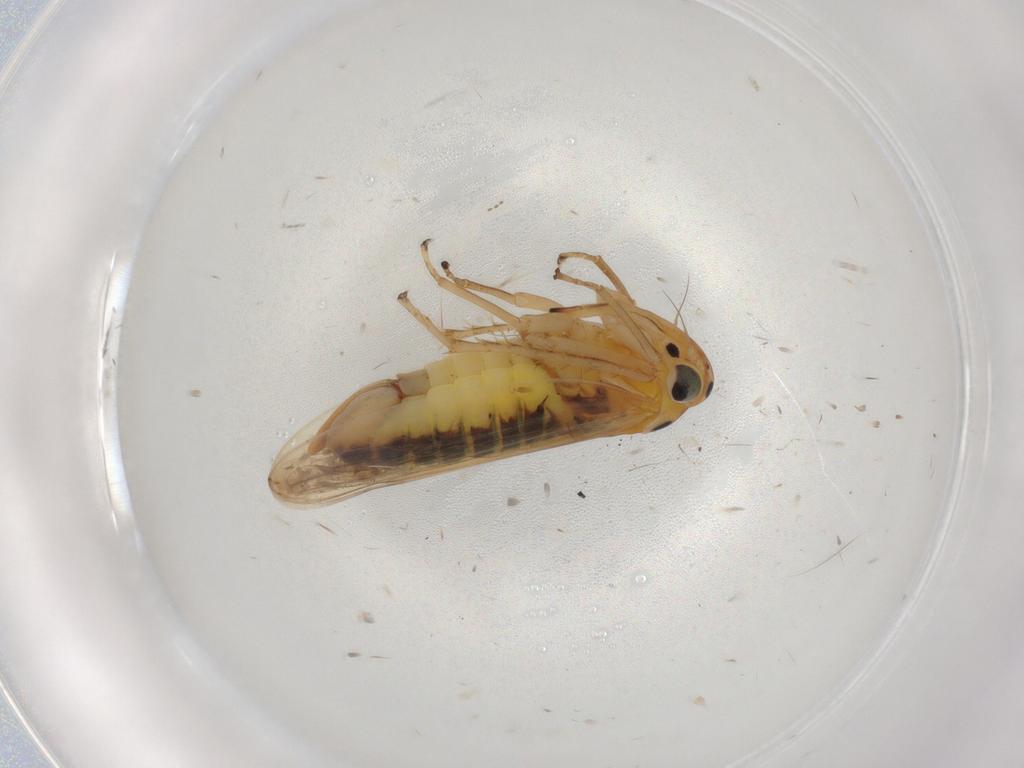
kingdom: Animalia
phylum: Arthropoda
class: Insecta
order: Hemiptera
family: Cicadellidae
